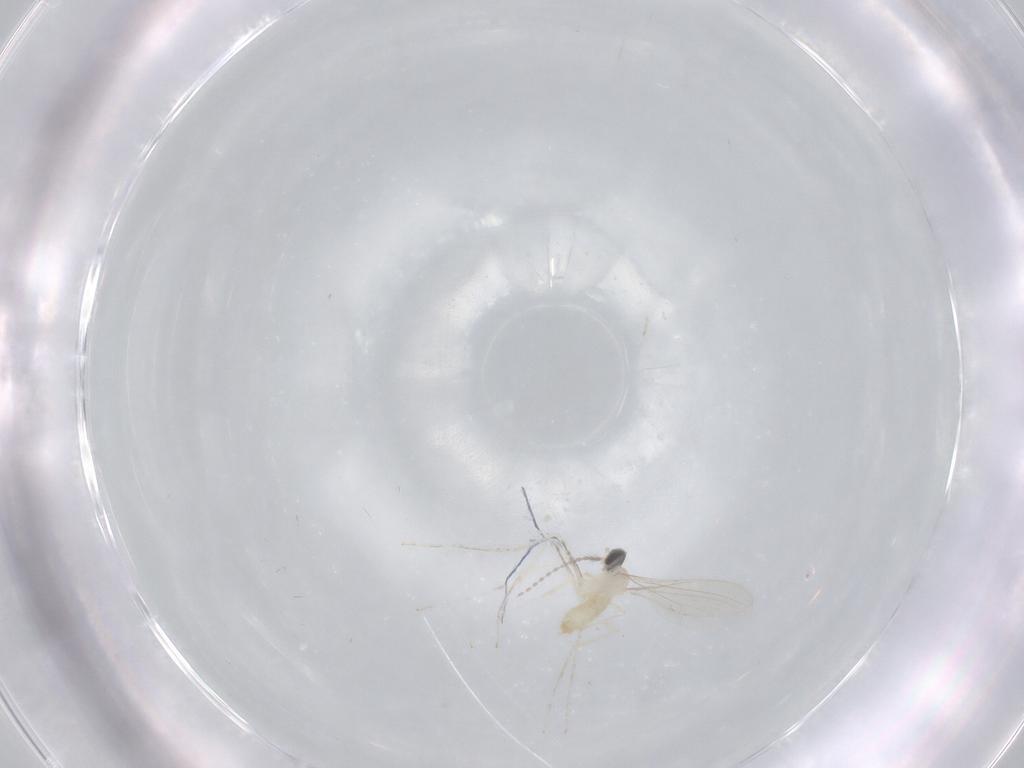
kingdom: Animalia
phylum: Arthropoda
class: Insecta
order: Diptera
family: Cecidomyiidae
